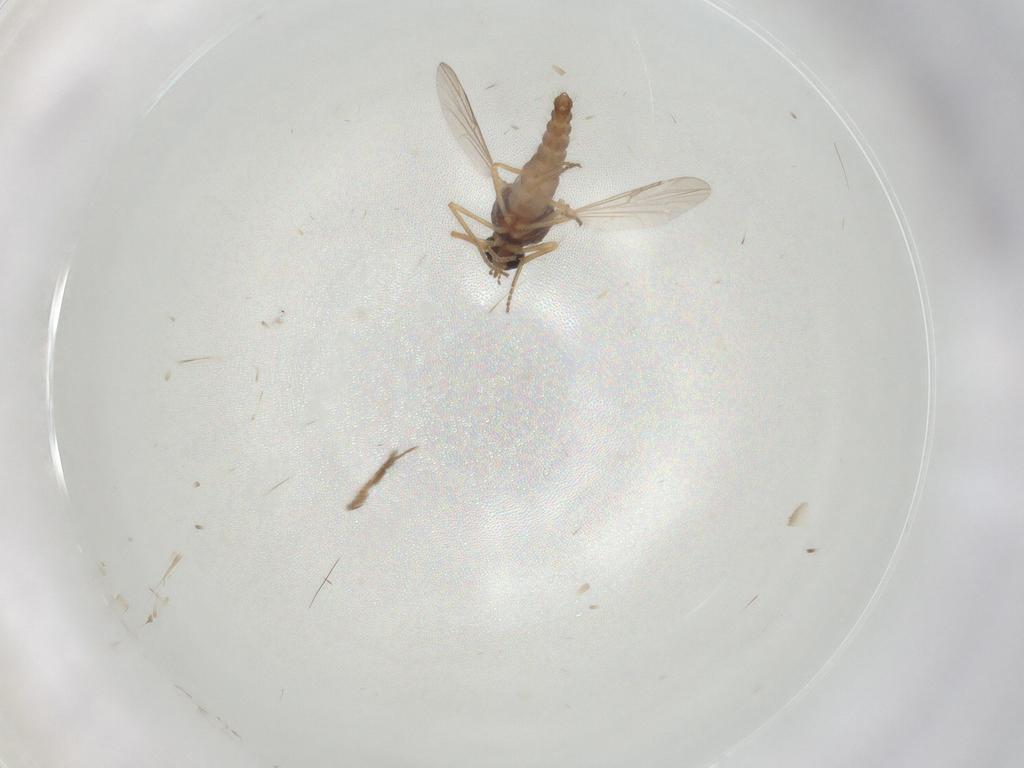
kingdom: Animalia
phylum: Arthropoda
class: Insecta
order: Diptera
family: Ceratopogonidae
